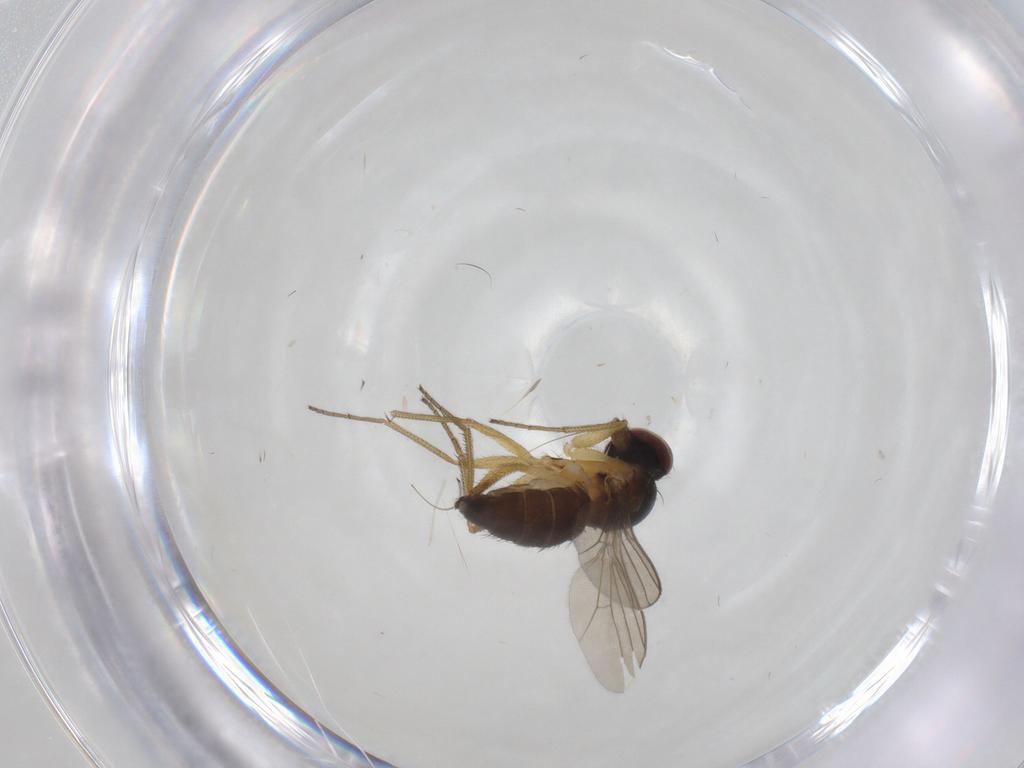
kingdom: Animalia
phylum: Arthropoda
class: Insecta
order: Diptera
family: Dolichopodidae
